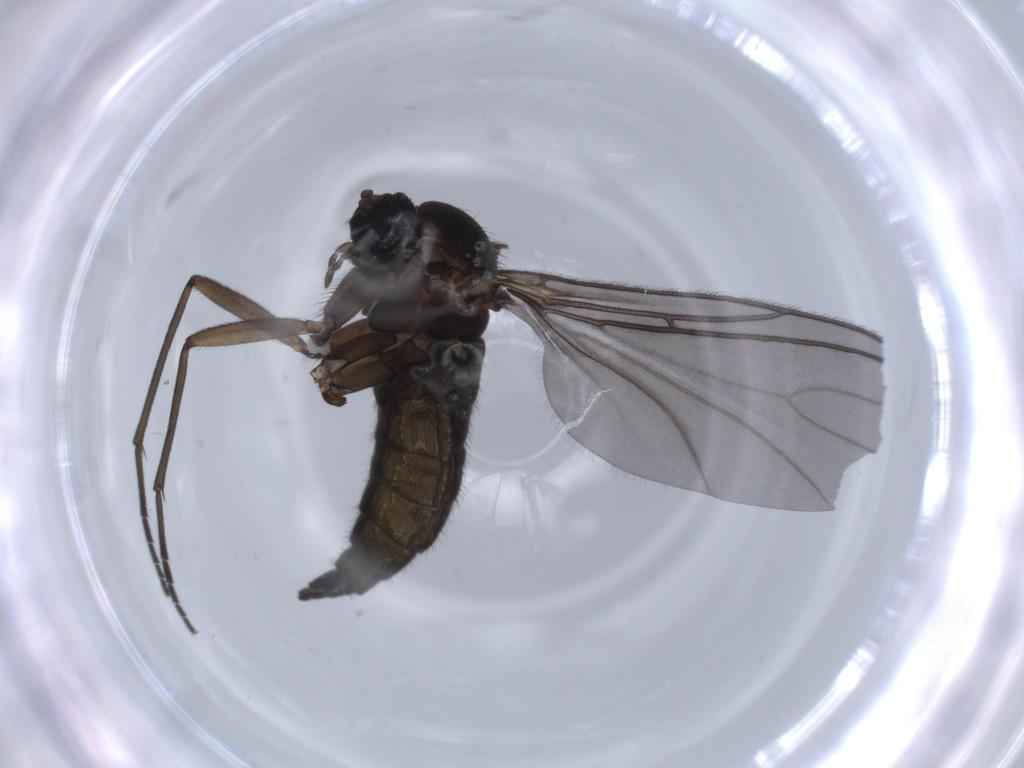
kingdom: Animalia
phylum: Arthropoda
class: Insecta
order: Diptera
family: Sciaridae
